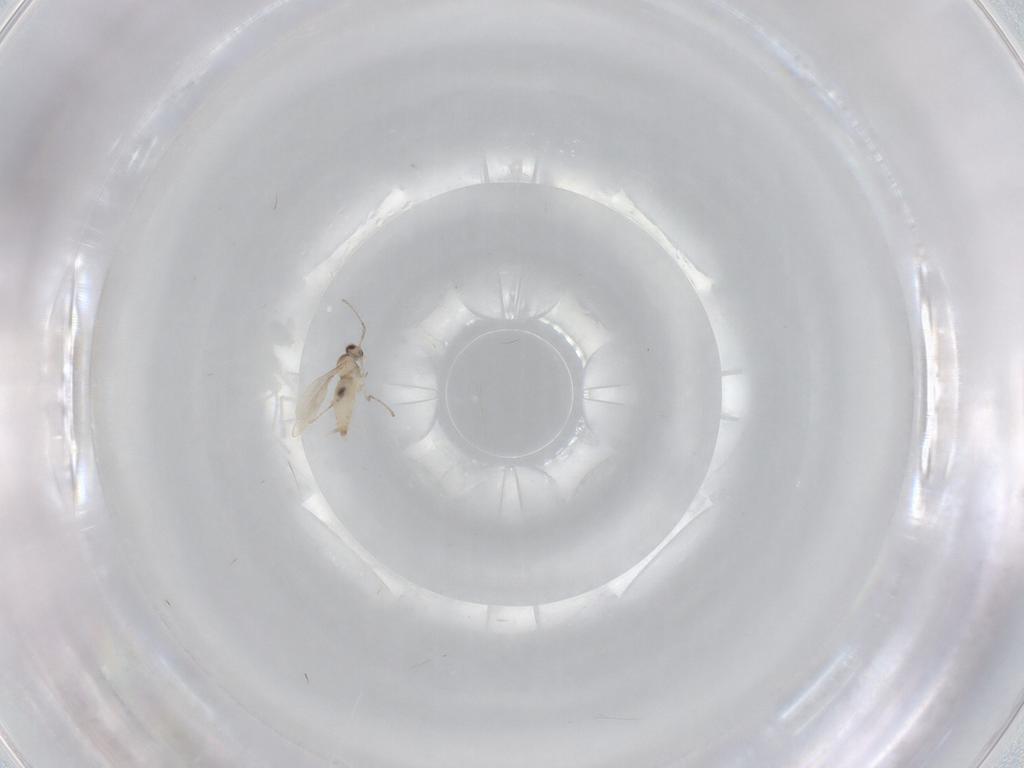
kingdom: Animalia
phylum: Arthropoda
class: Insecta
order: Diptera
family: Cecidomyiidae
